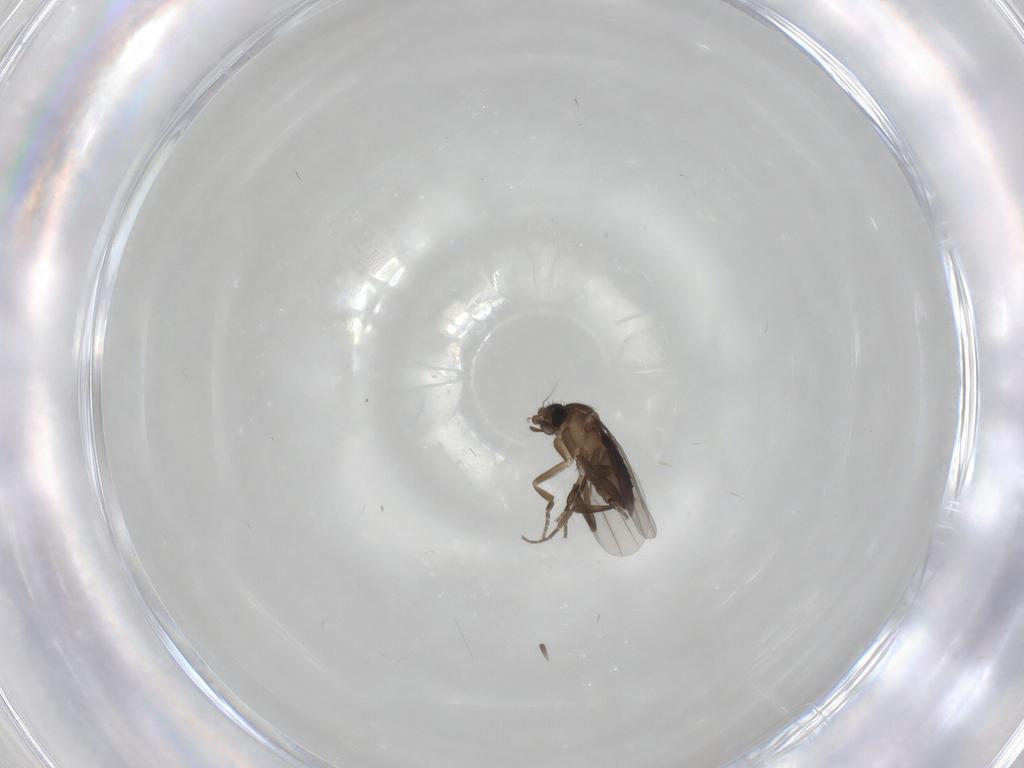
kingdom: Animalia
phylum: Arthropoda
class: Insecta
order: Diptera
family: Phoridae
